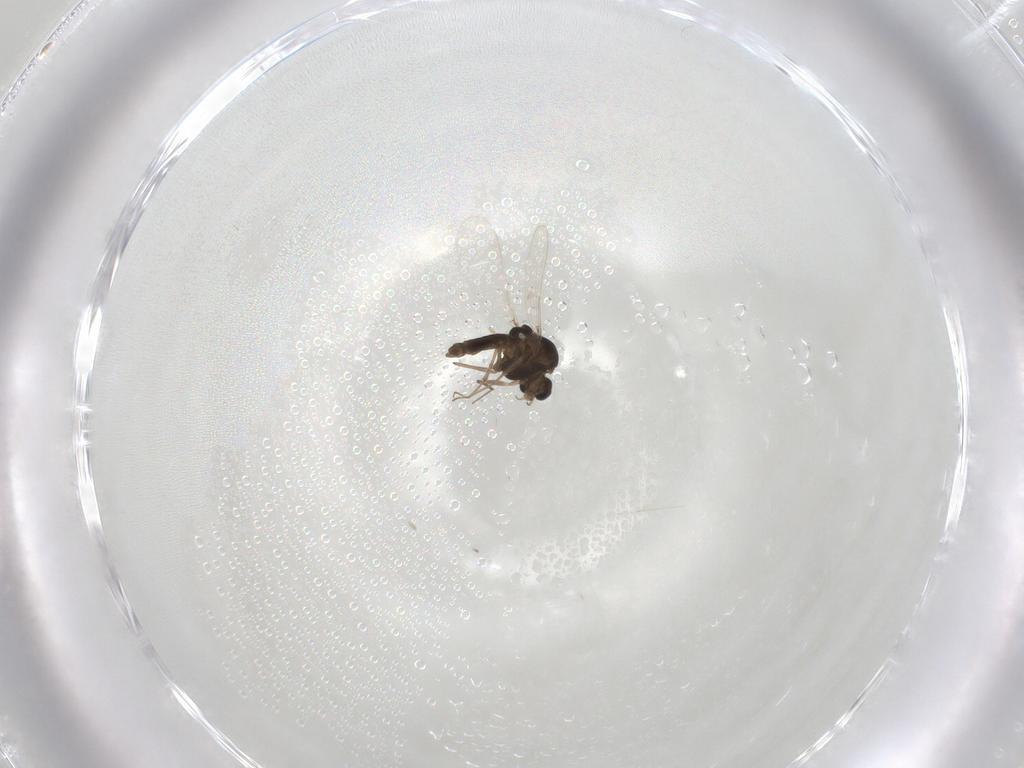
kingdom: Animalia
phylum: Arthropoda
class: Insecta
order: Diptera
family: Chironomidae
